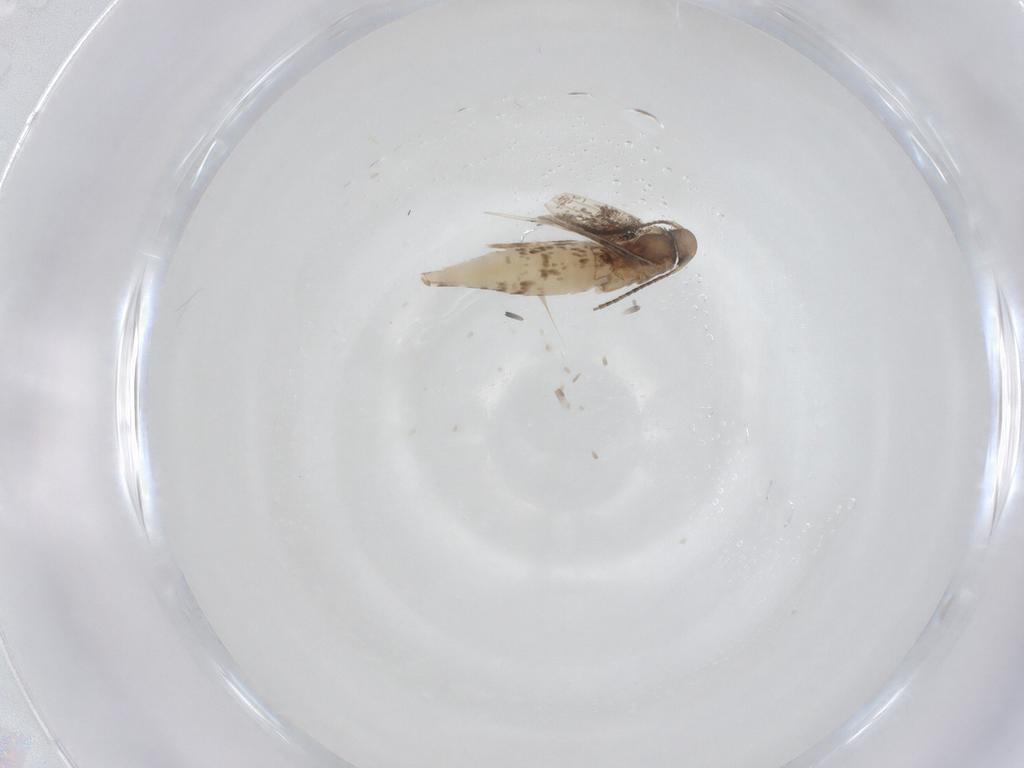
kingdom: Animalia
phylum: Arthropoda
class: Insecta
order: Lepidoptera
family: Gracillariidae
